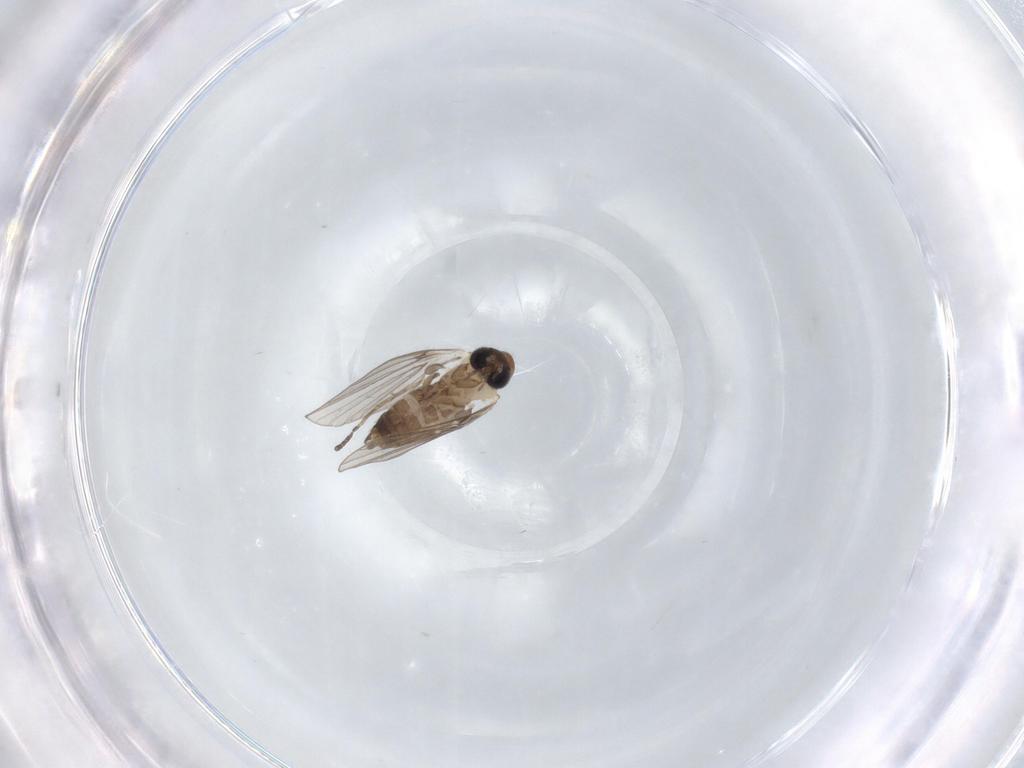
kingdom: Animalia
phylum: Arthropoda
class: Insecta
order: Diptera
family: Psychodidae
